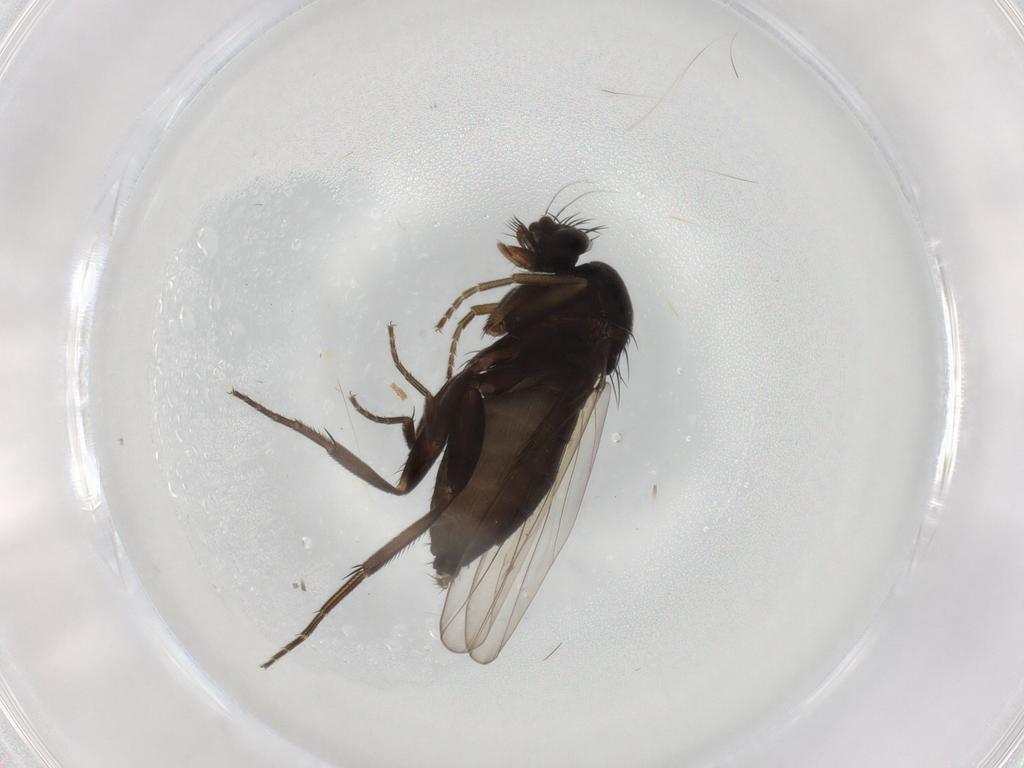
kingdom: Animalia
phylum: Arthropoda
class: Insecta
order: Diptera
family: Phoridae
